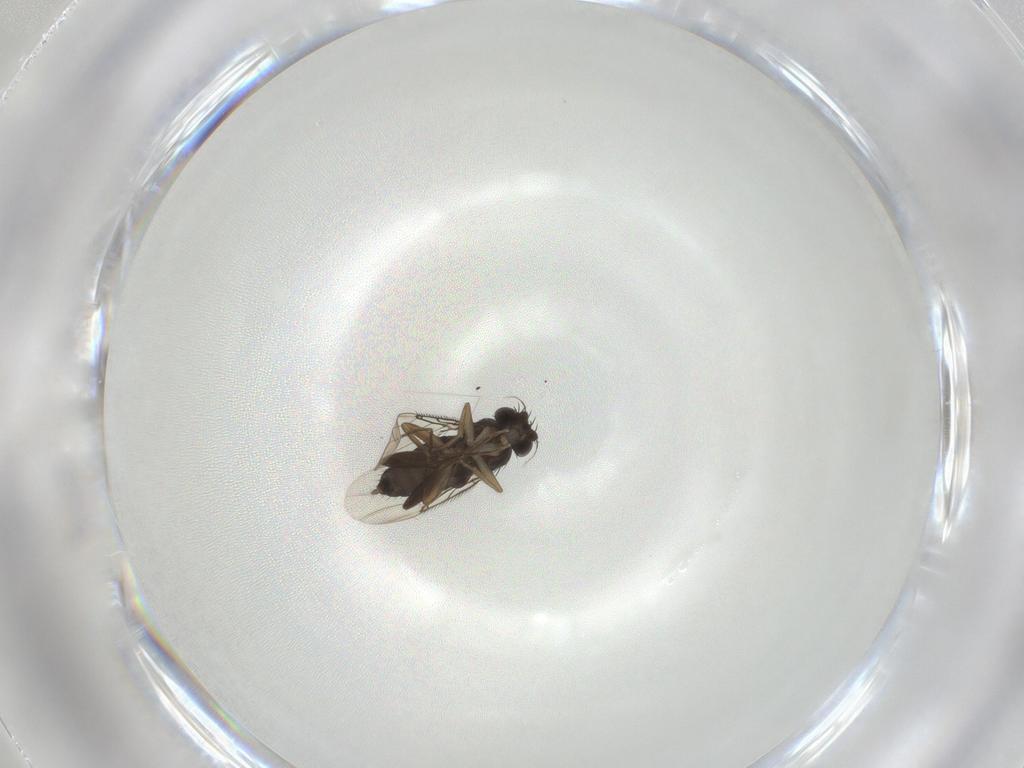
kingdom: Animalia
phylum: Arthropoda
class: Insecta
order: Diptera
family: Phoridae
